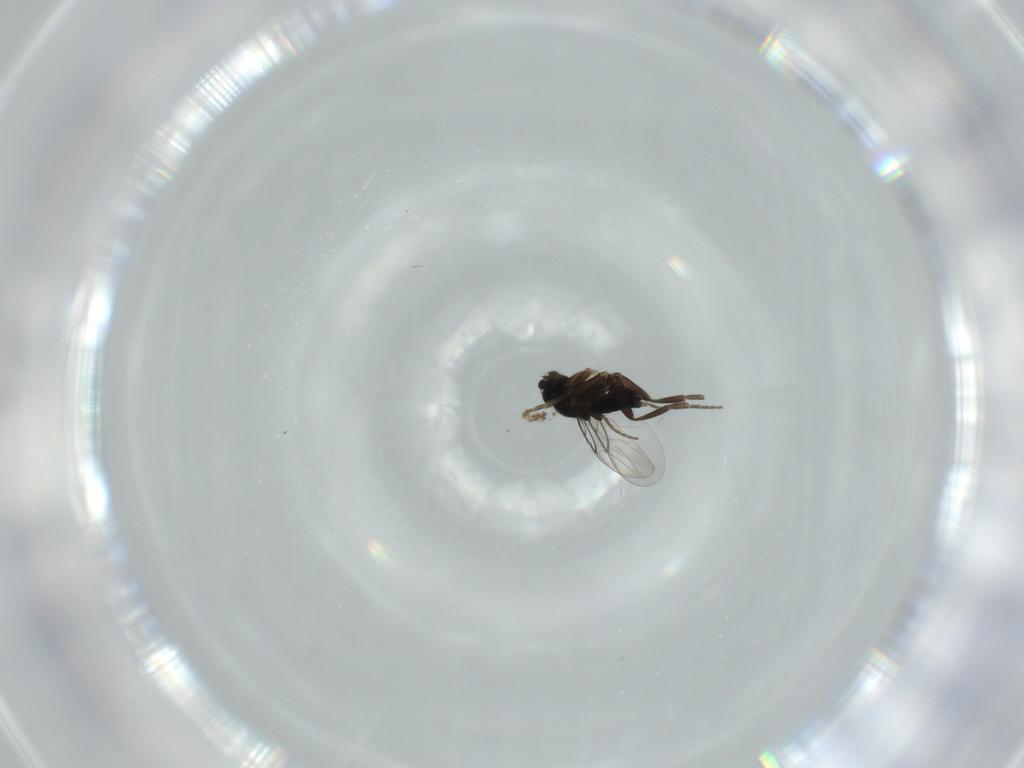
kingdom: Animalia
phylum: Arthropoda
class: Insecta
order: Diptera
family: Phoridae
